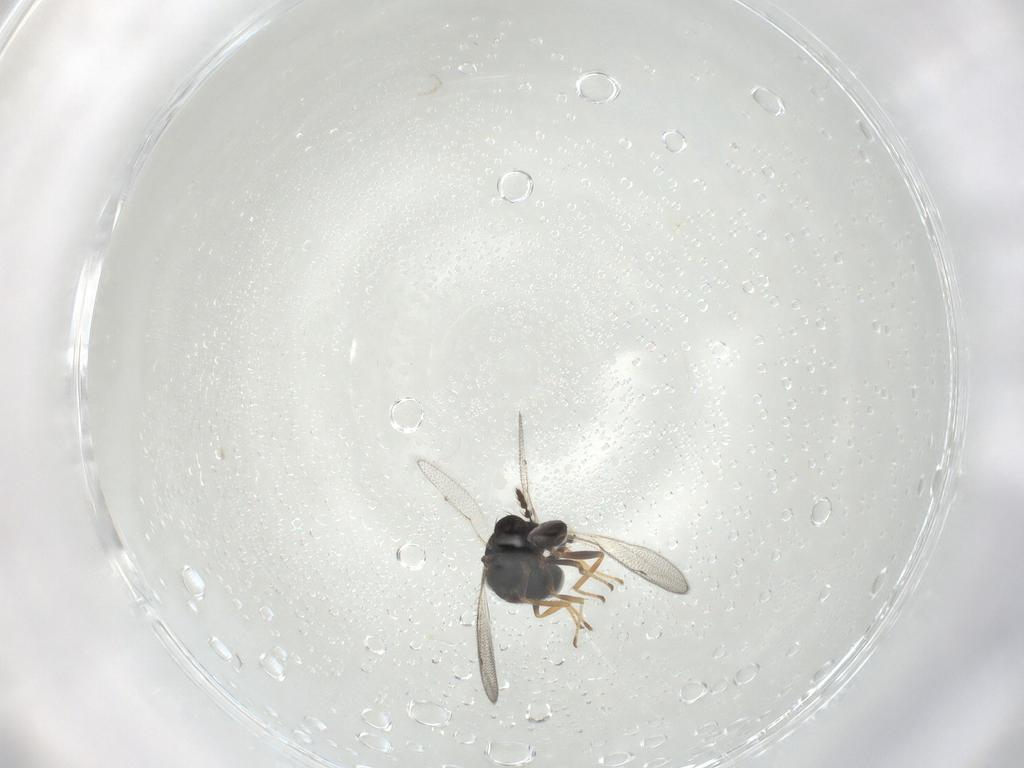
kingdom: Animalia
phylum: Arthropoda
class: Insecta
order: Hymenoptera
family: Pteromalidae
